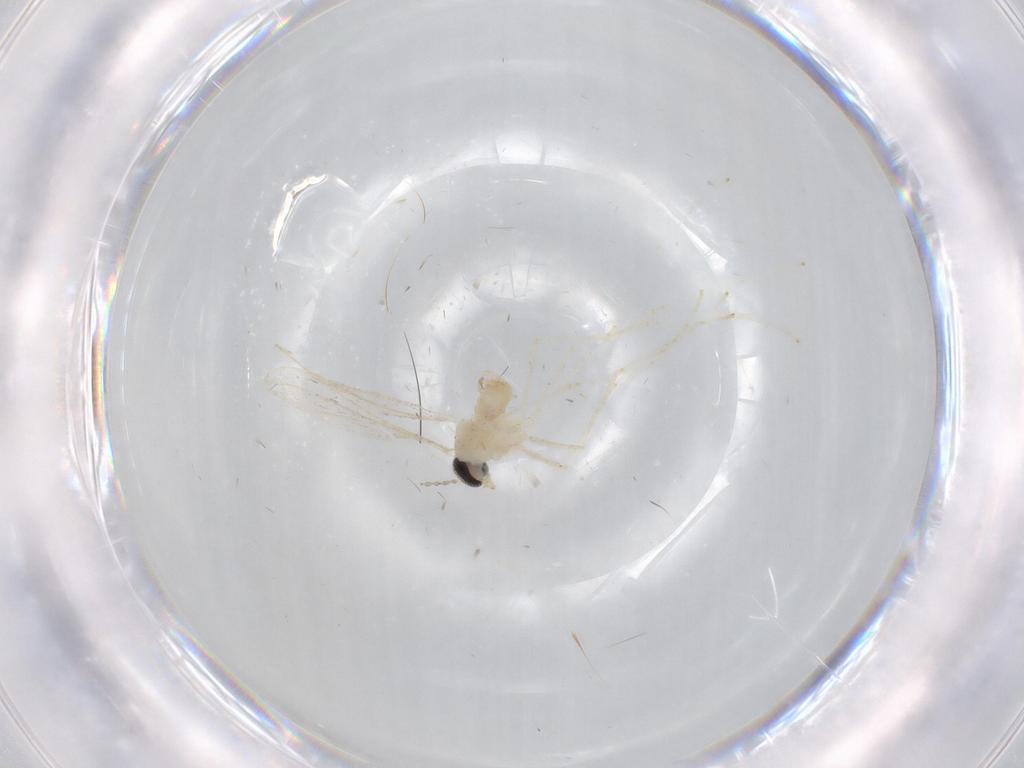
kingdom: Animalia
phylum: Arthropoda
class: Insecta
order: Diptera
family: Cecidomyiidae
